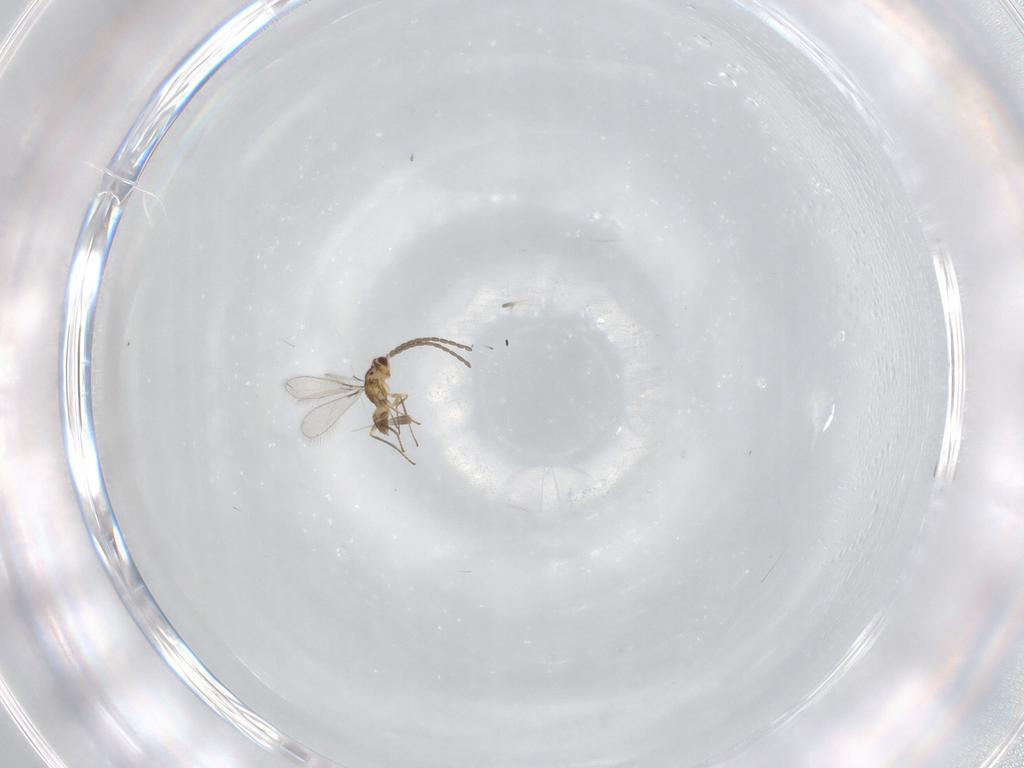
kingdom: Animalia
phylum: Arthropoda
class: Insecta
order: Hymenoptera
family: Mymaridae
